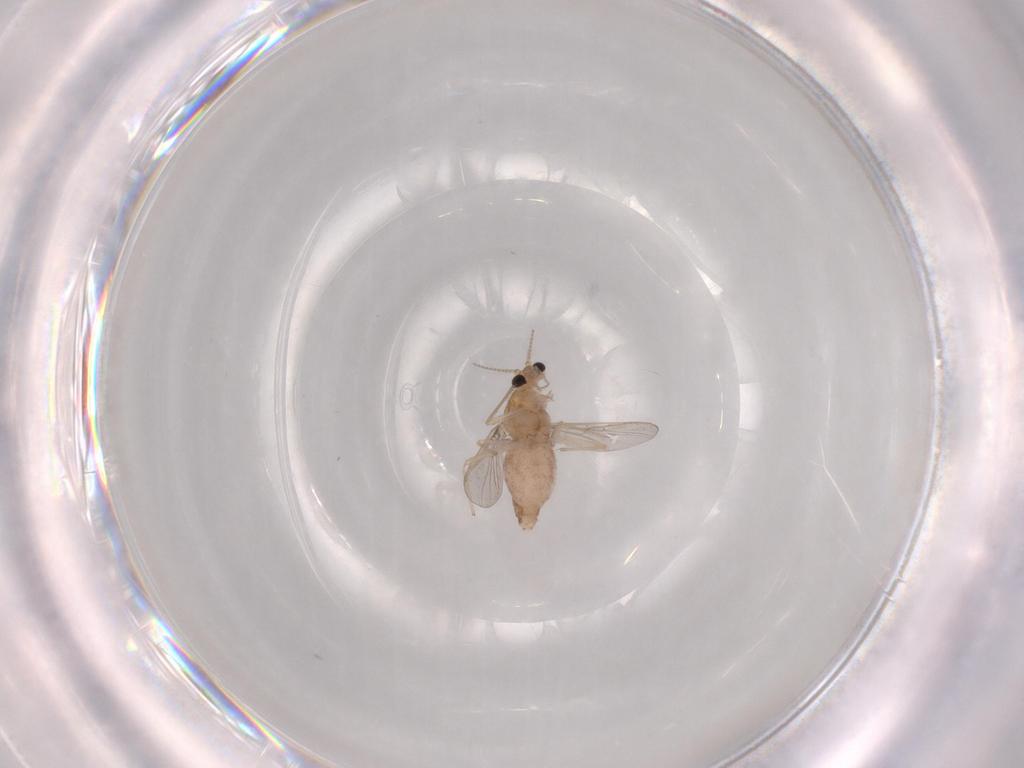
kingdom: Animalia
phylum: Arthropoda
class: Insecta
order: Diptera
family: Chironomidae
